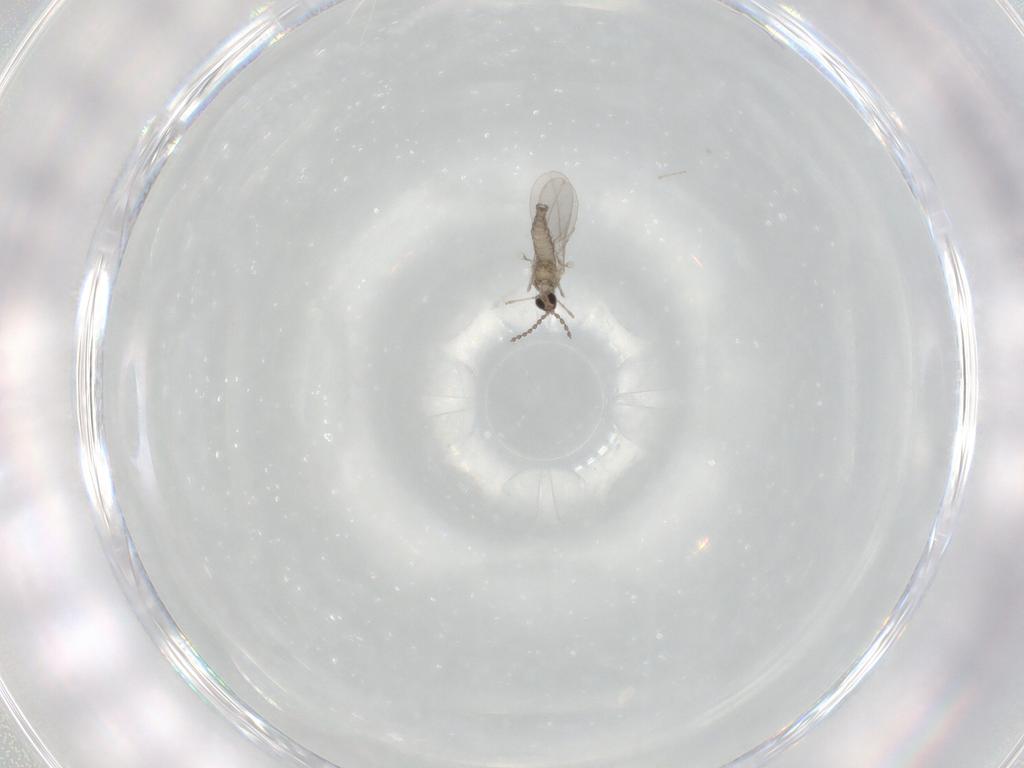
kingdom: Animalia
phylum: Arthropoda
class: Insecta
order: Diptera
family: Cecidomyiidae
